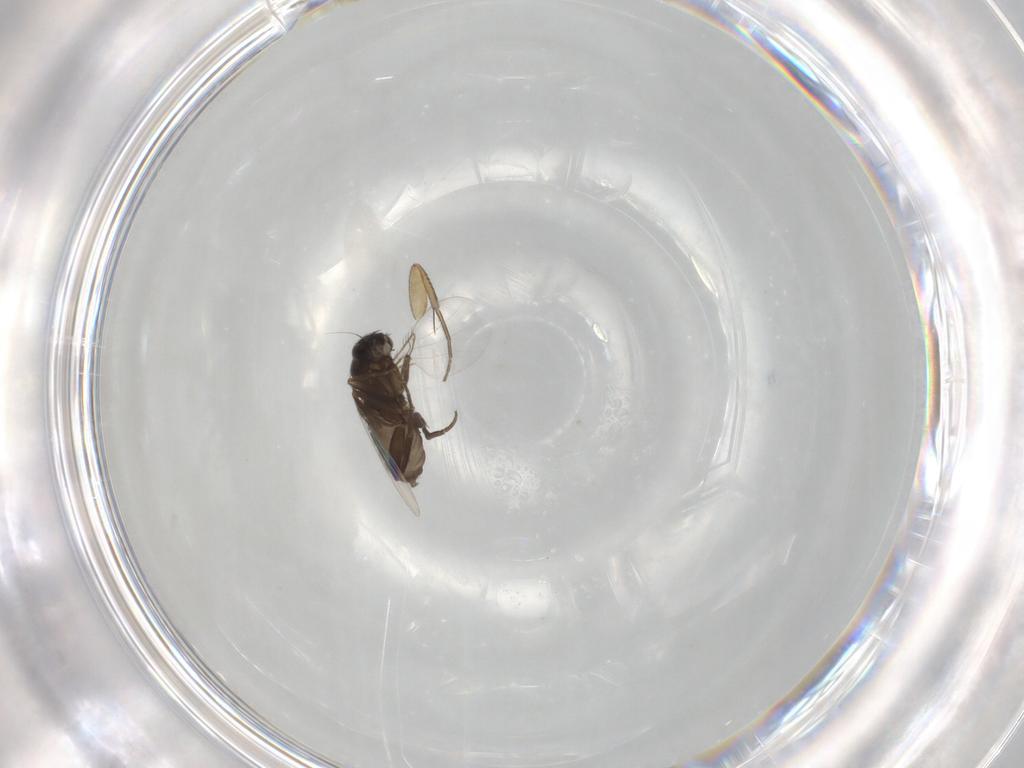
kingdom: Animalia
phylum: Arthropoda
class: Insecta
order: Diptera
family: Phoridae
